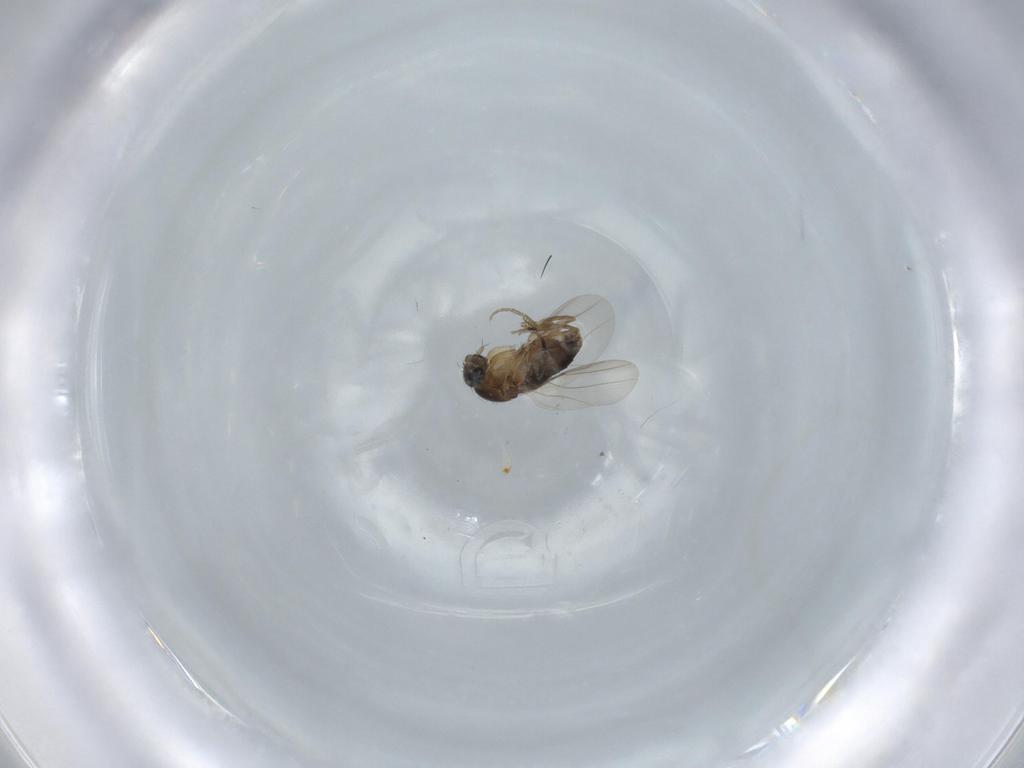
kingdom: Animalia
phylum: Arthropoda
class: Insecta
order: Diptera
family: Phoridae
